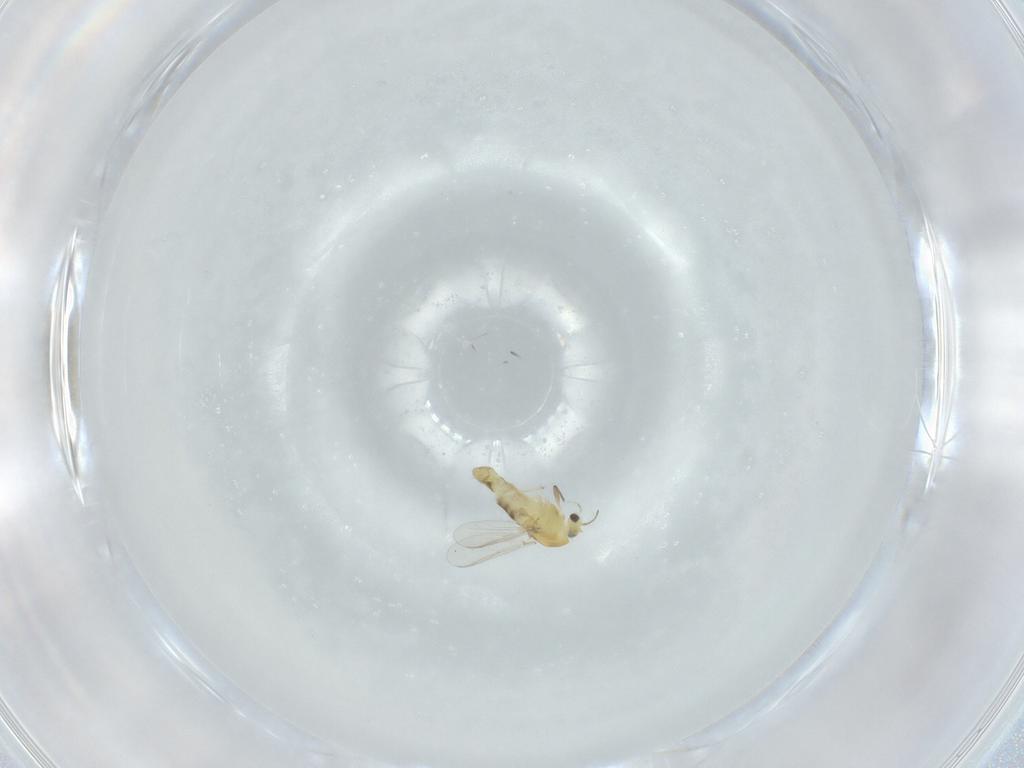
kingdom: Animalia
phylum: Arthropoda
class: Insecta
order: Diptera
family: Chironomidae
